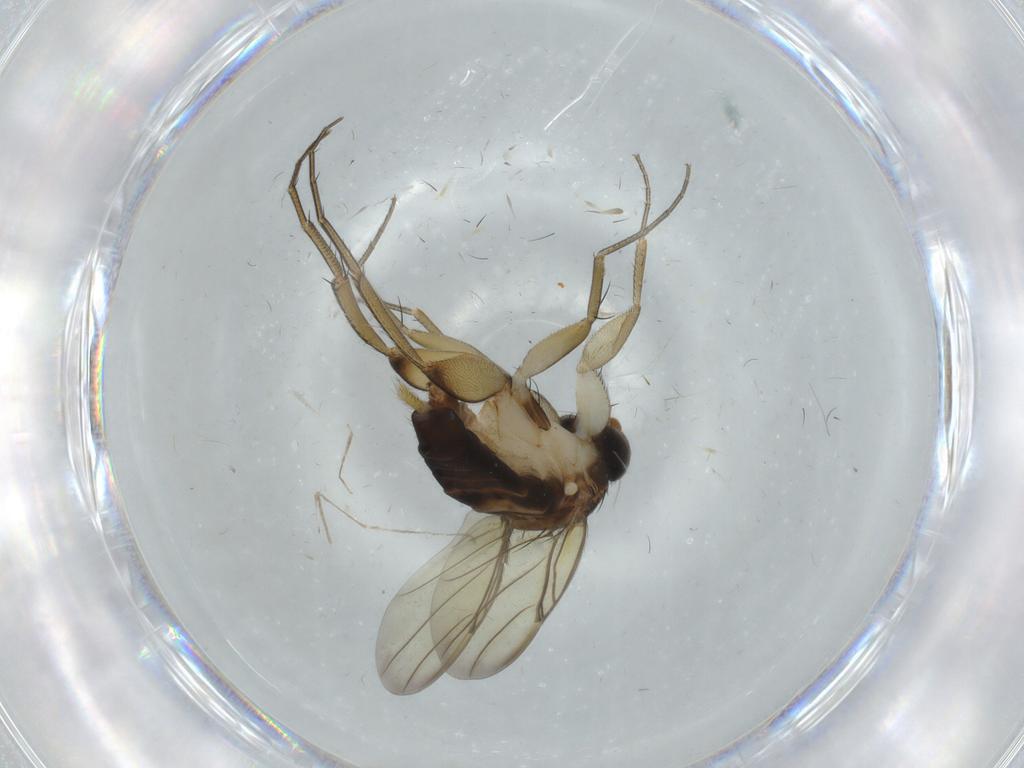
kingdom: Animalia
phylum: Arthropoda
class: Insecta
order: Diptera
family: Phoridae
